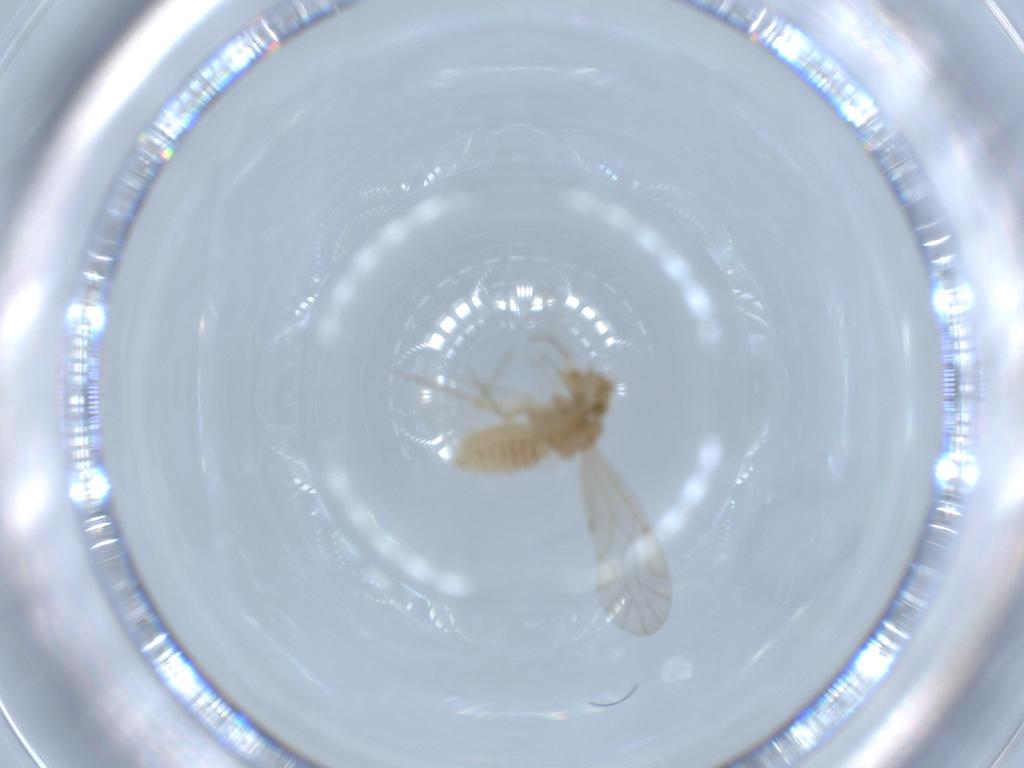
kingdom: Animalia
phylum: Arthropoda
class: Insecta
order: Psocodea
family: Lachesillidae
